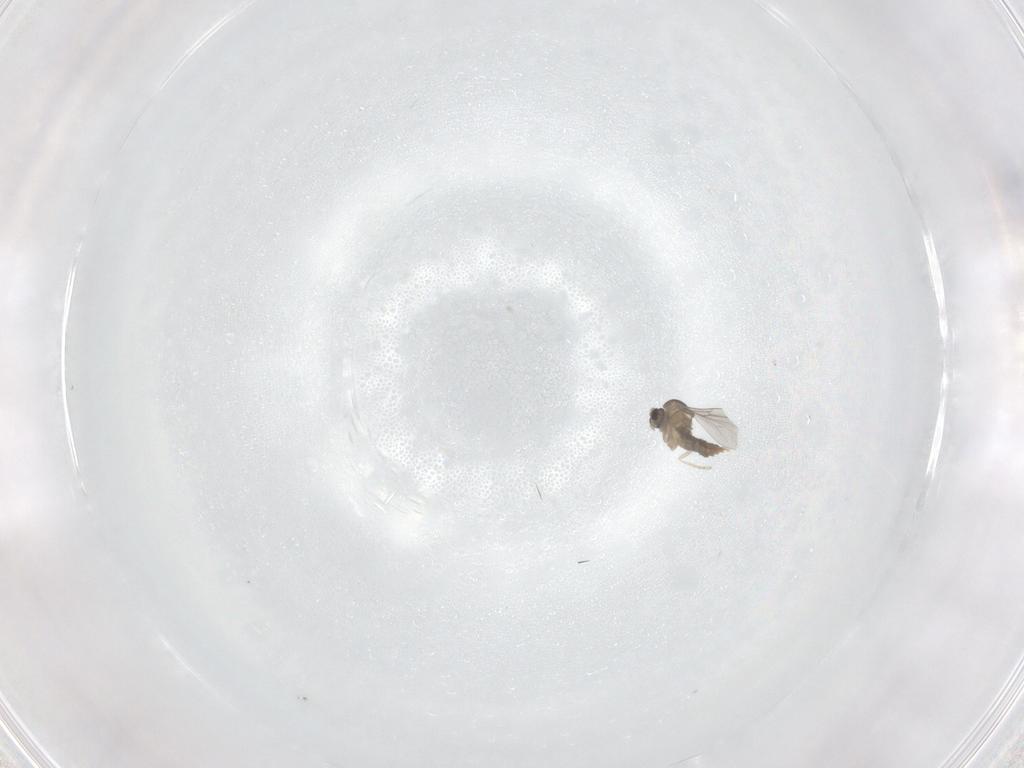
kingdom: Animalia
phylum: Arthropoda
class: Insecta
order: Diptera
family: Cecidomyiidae
